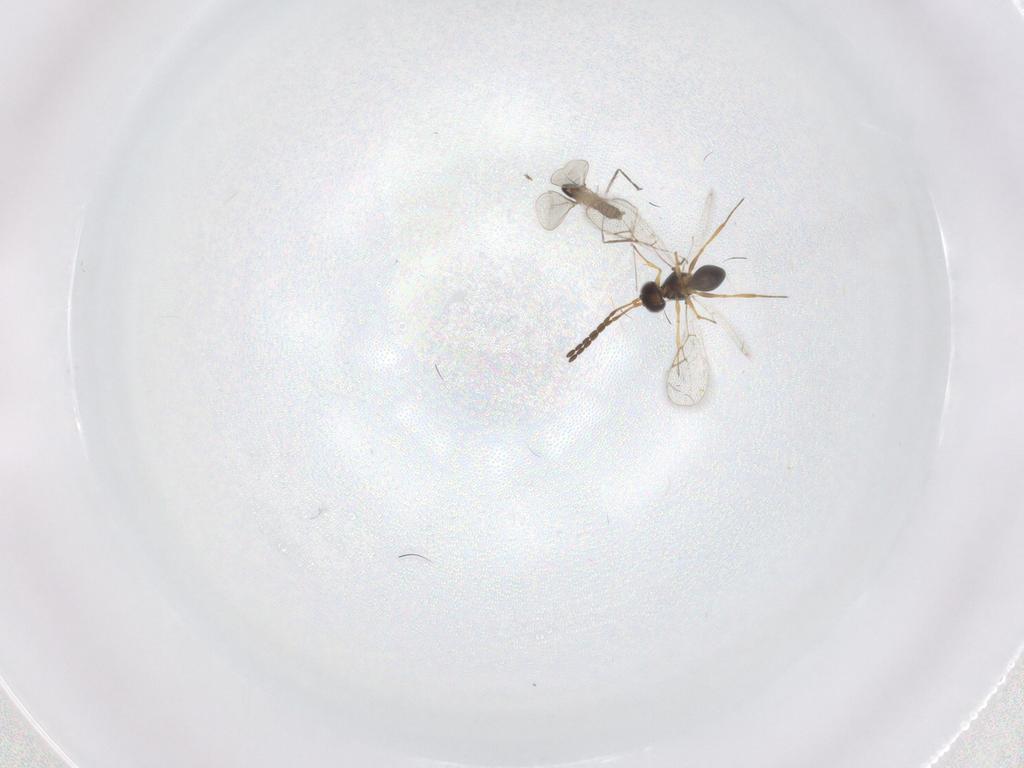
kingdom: Animalia
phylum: Arthropoda
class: Insecta
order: Diptera
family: Cecidomyiidae
